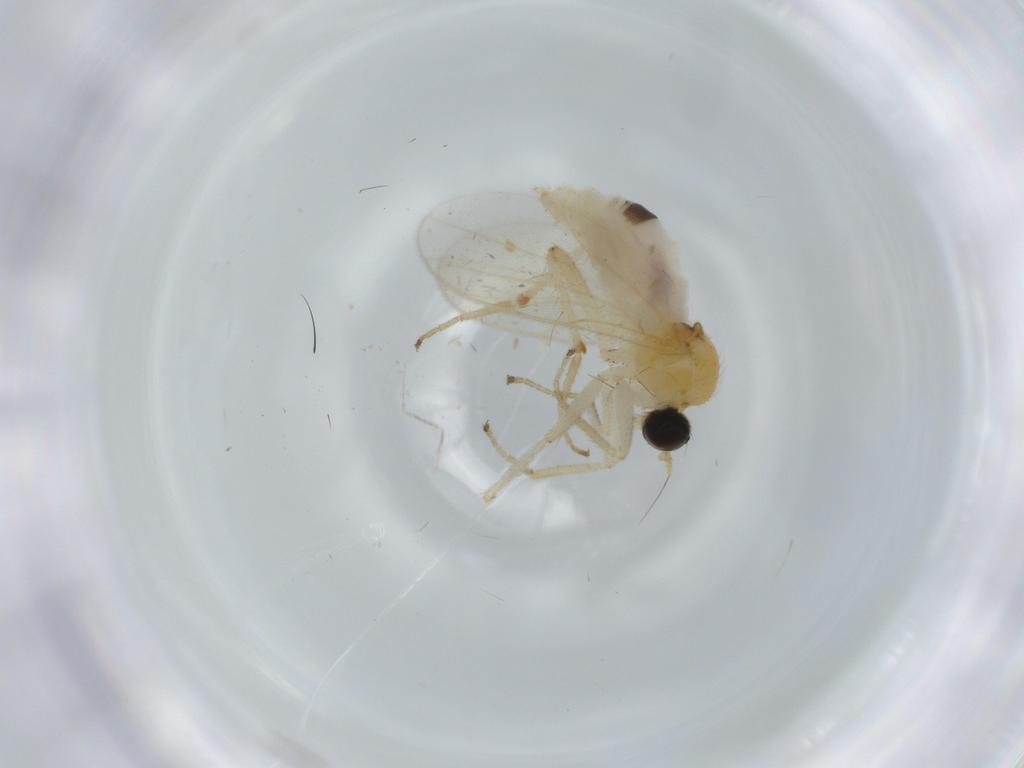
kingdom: Animalia
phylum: Arthropoda
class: Insecta
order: Diptera
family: Hybotidae
